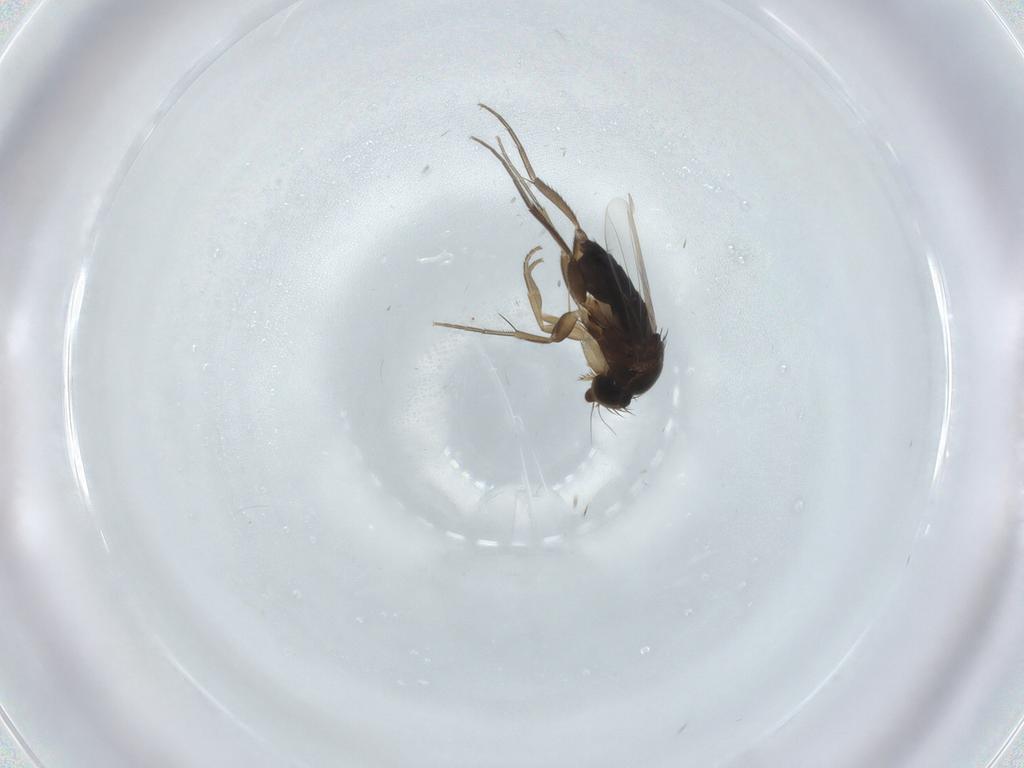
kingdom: Animalia
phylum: Arthropoda
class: Insecta
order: Diptera
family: Phoridae
